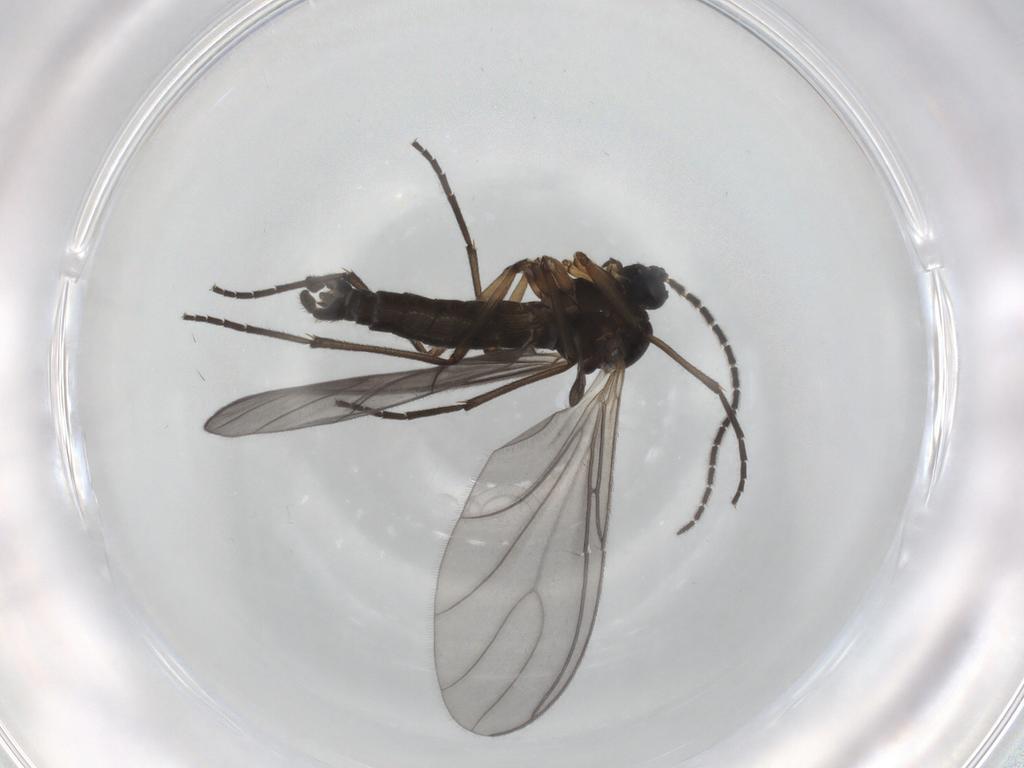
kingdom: Animalia
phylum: Arthropoda
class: Insecta
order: Diptera
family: Sciaridae
